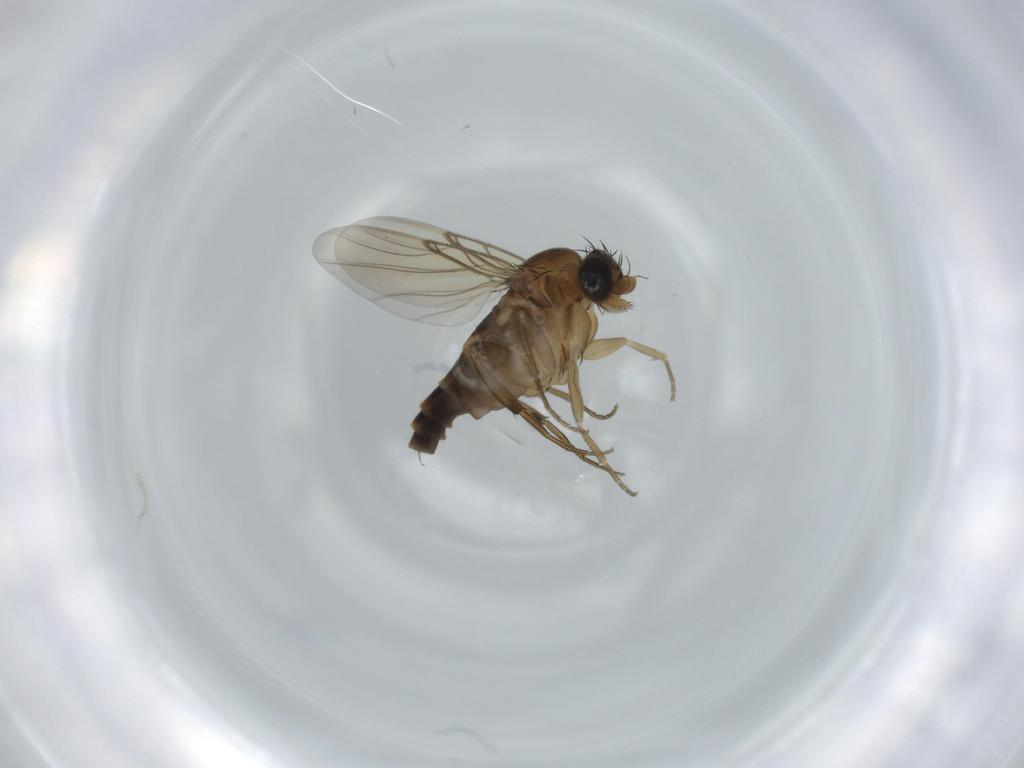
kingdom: Animalia
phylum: Arthropoda
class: Insecta
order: Diptera
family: Phoridae
